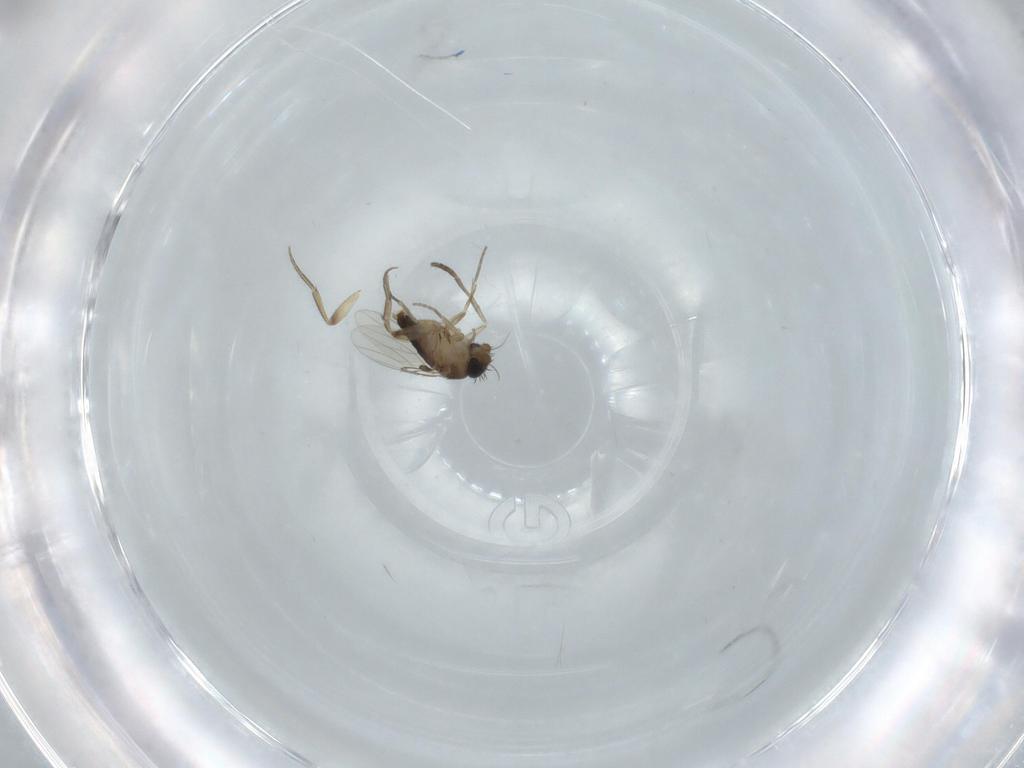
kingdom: Animalia
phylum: Arthropoda
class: Insecta
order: Diptera
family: Psychodidae
